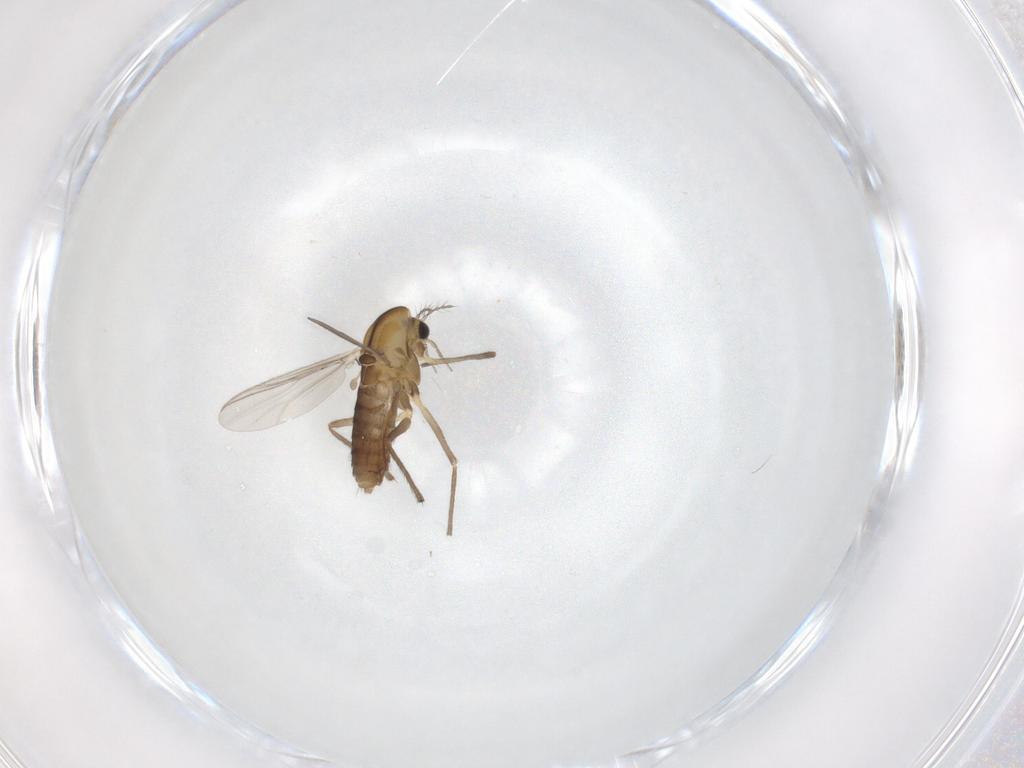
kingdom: Animalia
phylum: Arthropoda
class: Insecta
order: Diptera
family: Chironomidae
